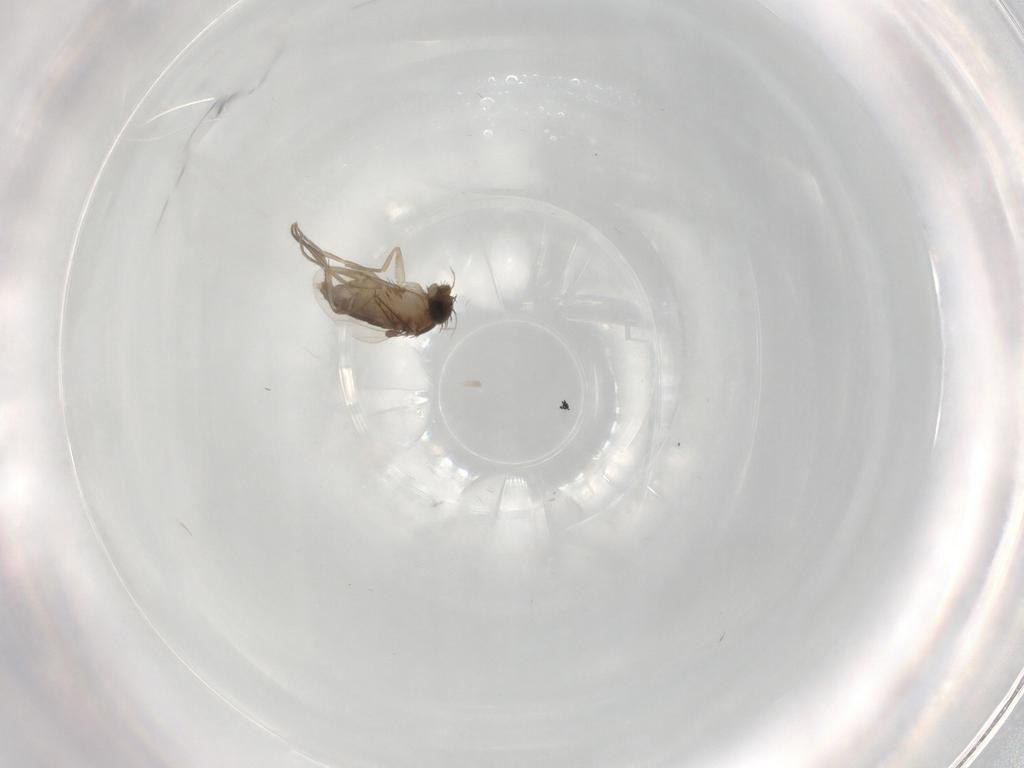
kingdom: Animalia
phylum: Arthropoda
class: Insecta
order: Diptera
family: Phoridae
